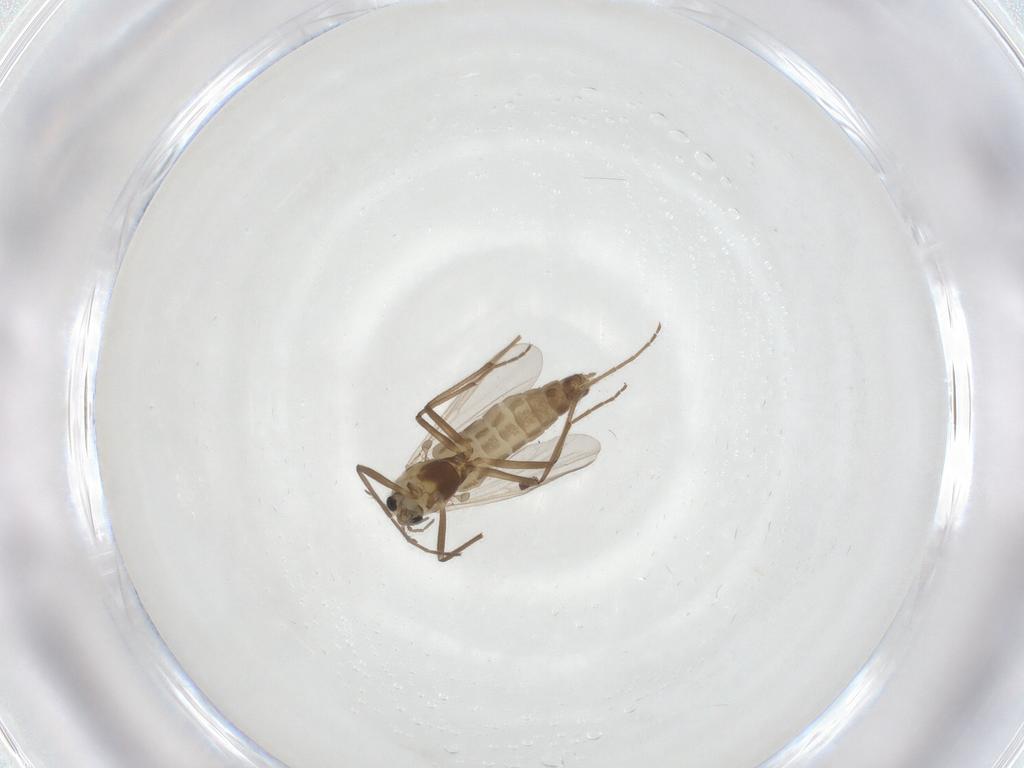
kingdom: Animalia
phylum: Arthropoda
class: Insecta
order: Diptera
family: Chironomidae
